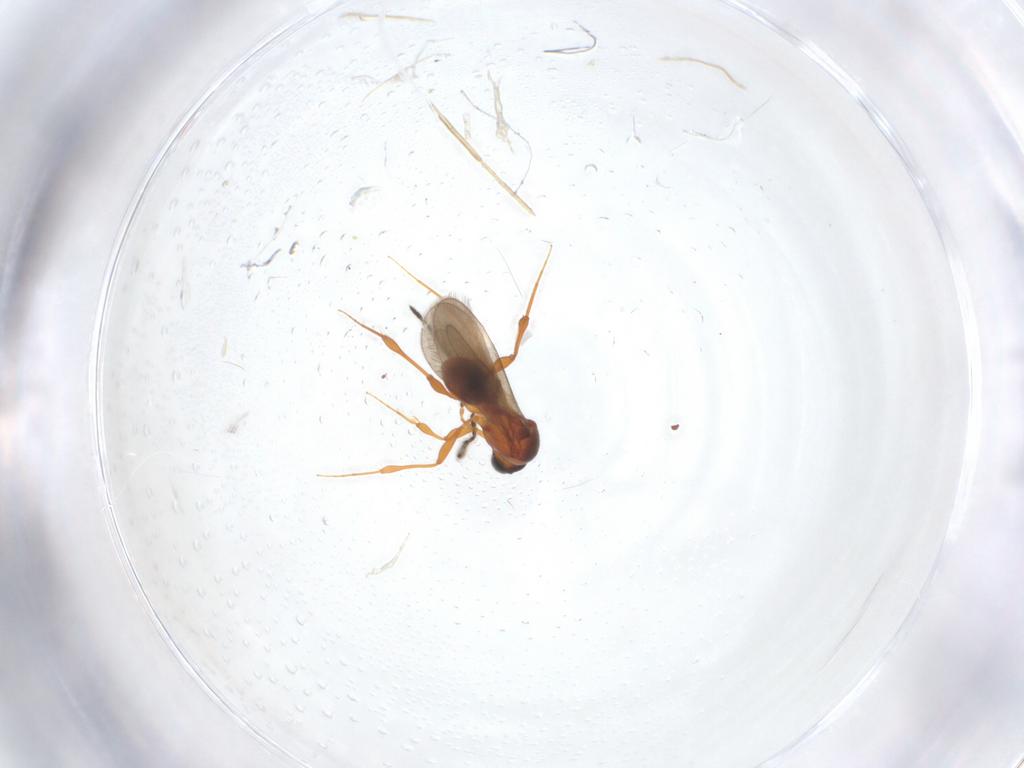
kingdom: Animalia
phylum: Arthropoda
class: Insecta
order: Hymenoptera
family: Platygastridae
